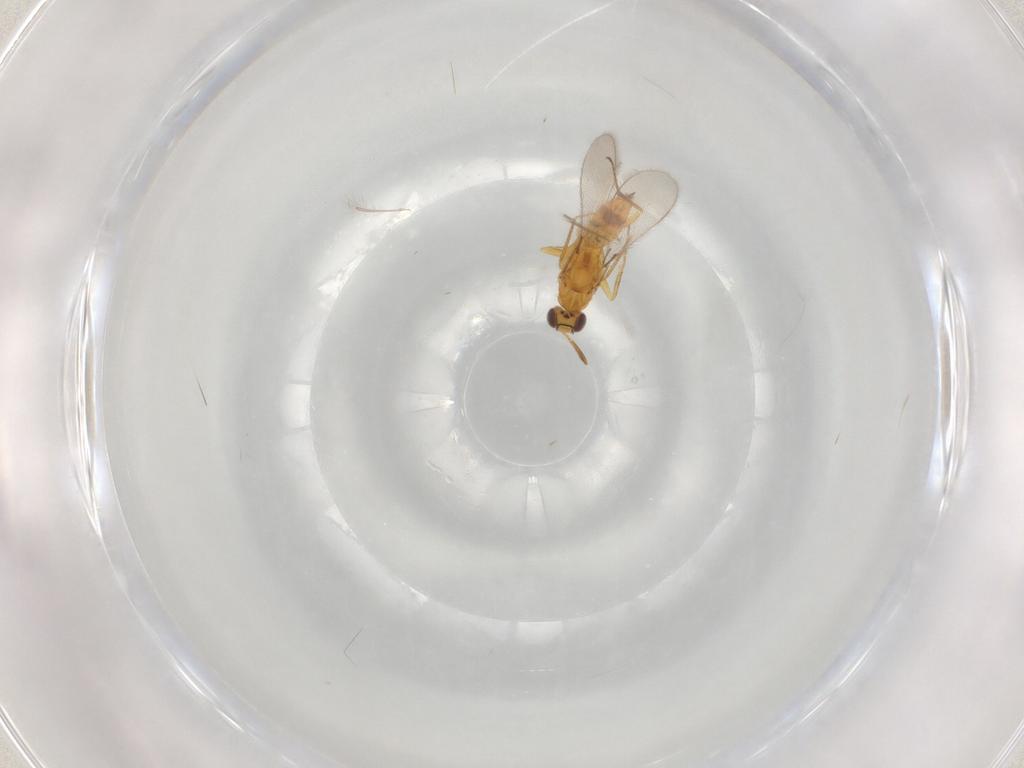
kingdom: Animalia
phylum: Arthropoda
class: Insecta
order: Hymenoptera
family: Mymaridae
